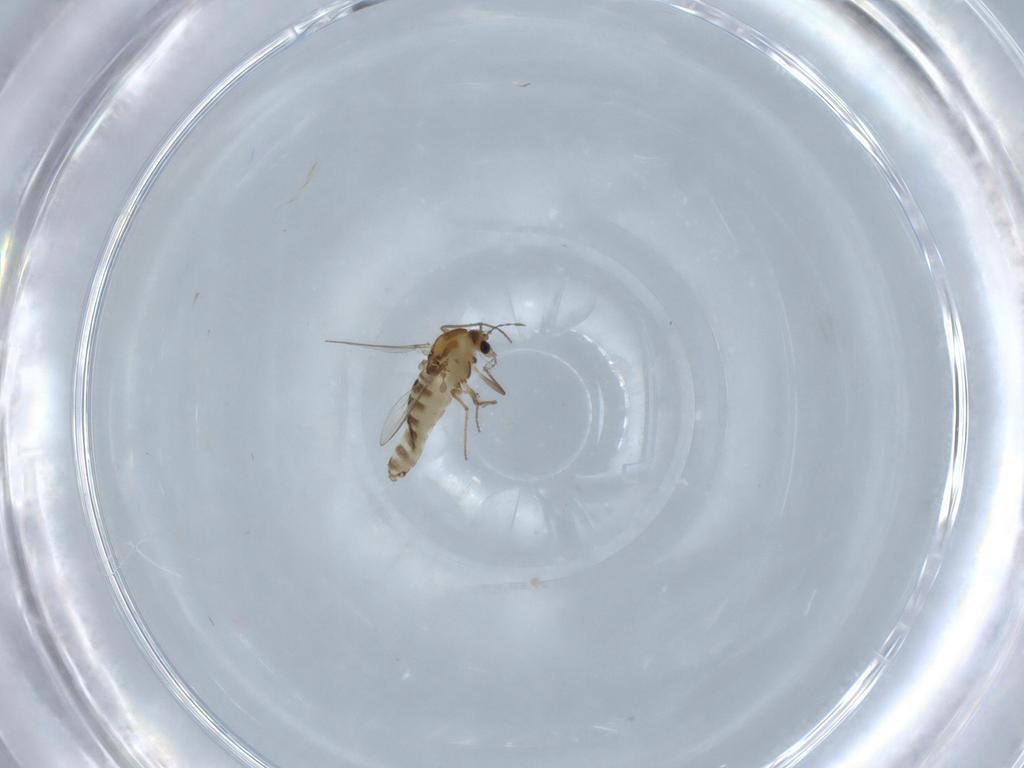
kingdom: Animalia
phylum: Arthropoda
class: Insecta
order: Diptera
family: Chironomidae
